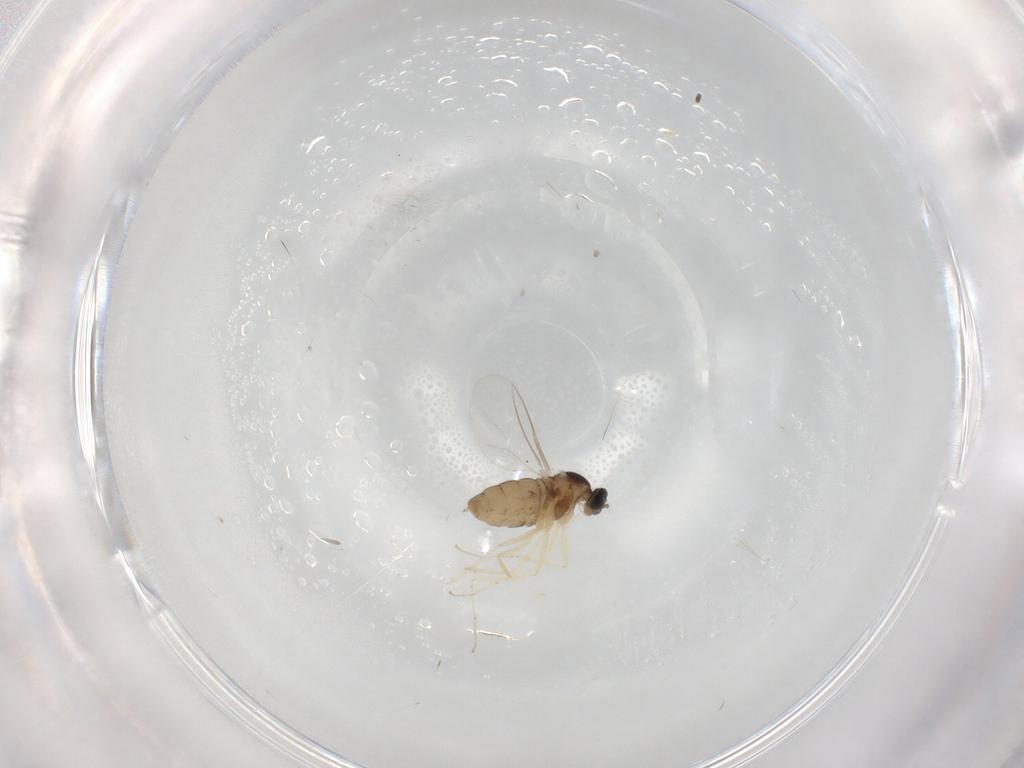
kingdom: Animalia
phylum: Arthropoda
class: Insecta
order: Diptera
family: Cecidomyiidae
